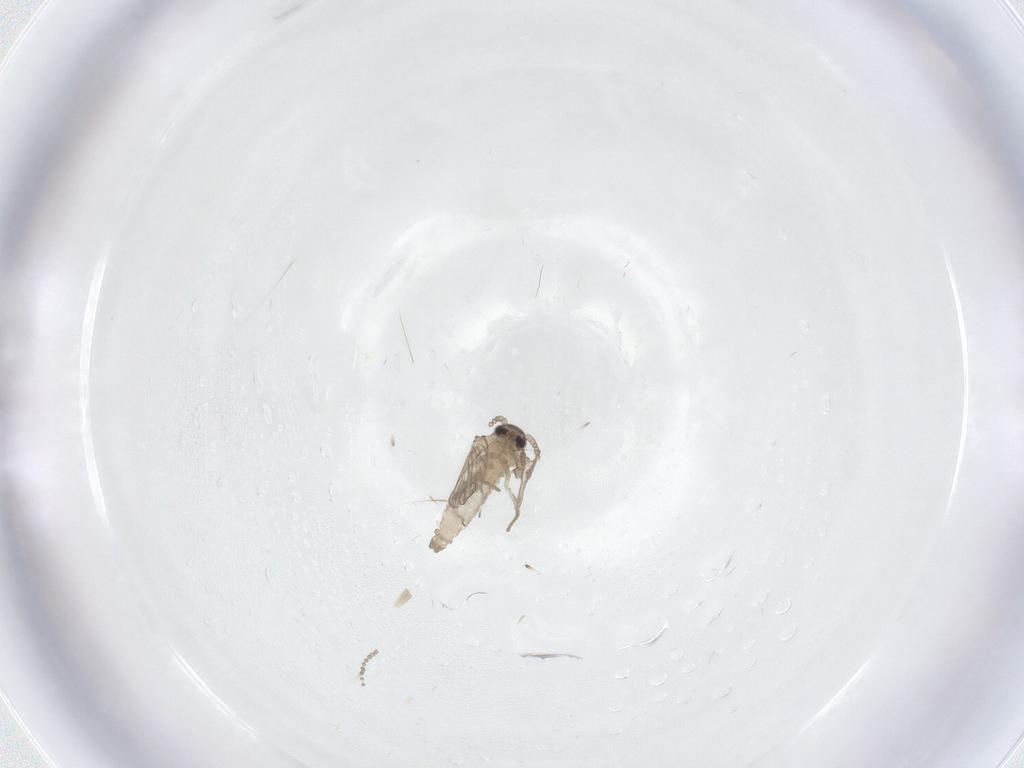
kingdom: Animalia
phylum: Arthropoda
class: Insecta
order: Diptera
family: Psychodidae
